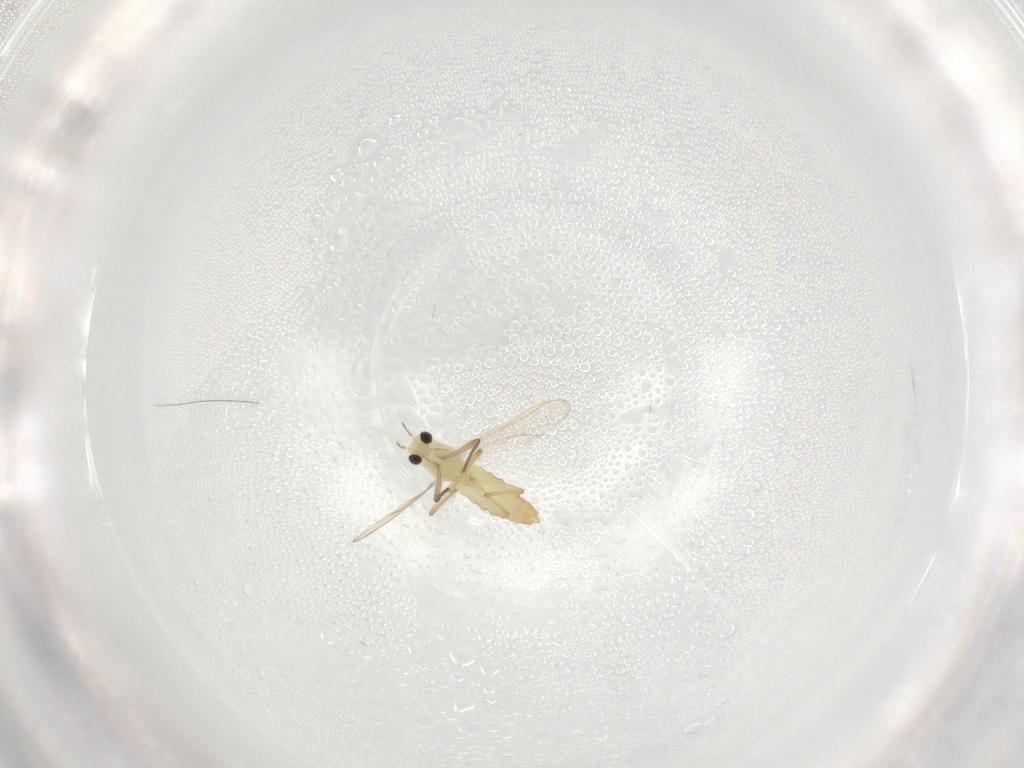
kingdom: Animalia
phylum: Arthropoda
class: Insecta
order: Diptera
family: Chironomidae
